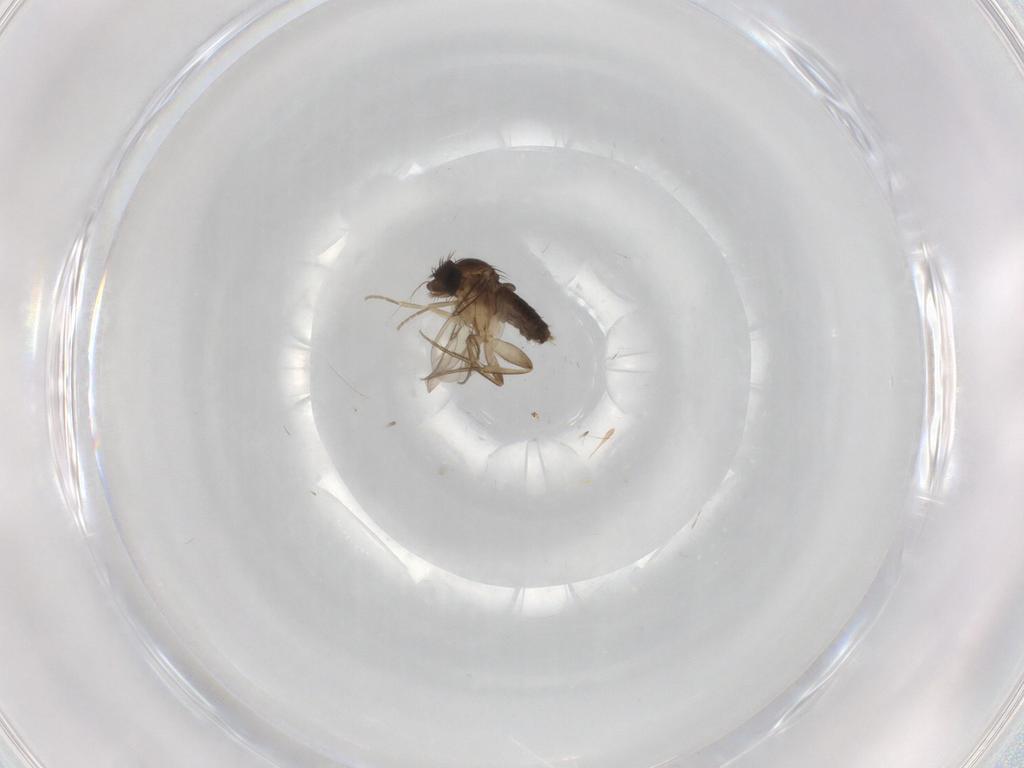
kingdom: Animalia
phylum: Arthropoda
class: Insecta
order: Diptera
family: Phoridae
